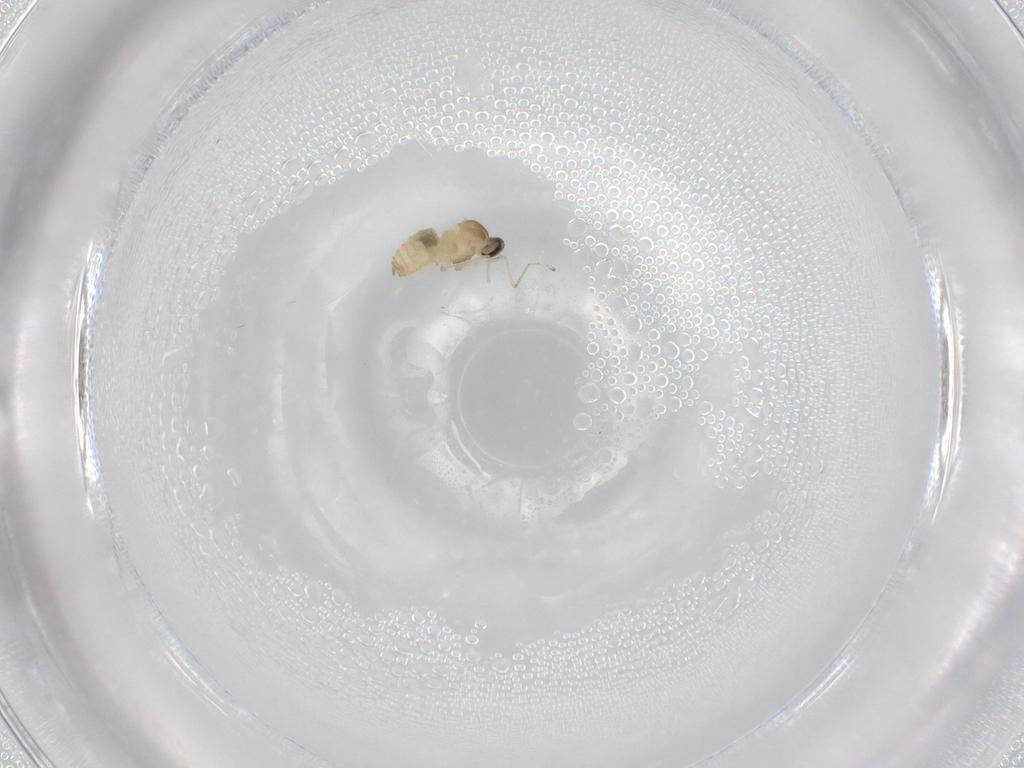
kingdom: Animalia
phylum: Arthropoda
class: Insecta
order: Diptera
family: Cecidomyiidae
